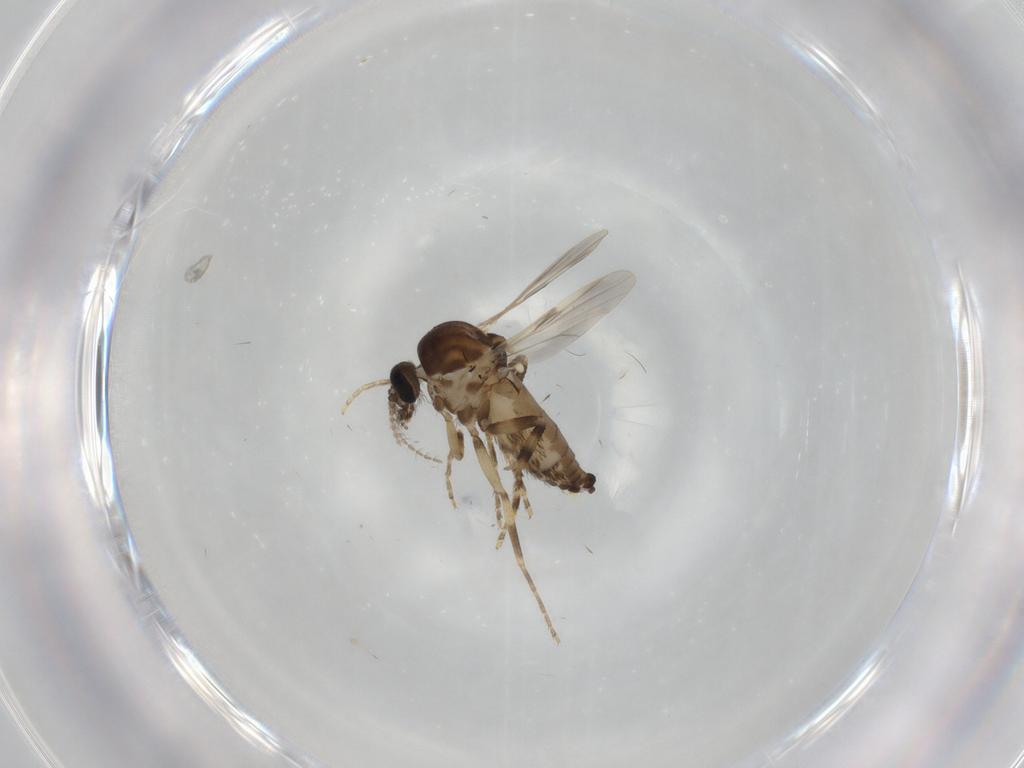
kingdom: Animalia
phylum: Arthropoda
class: Insecta
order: Diptera
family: Ceratopogonidae
